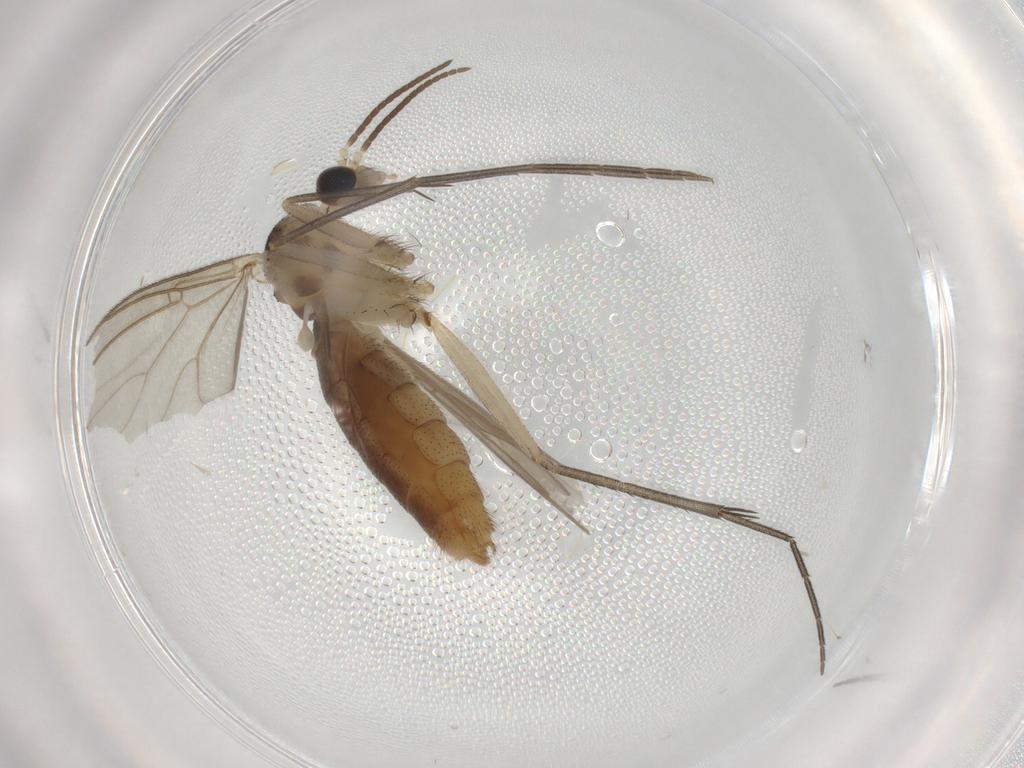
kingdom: Animalia
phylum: Arthropoda
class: Insecta
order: Diptera
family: Mycetophilidae
